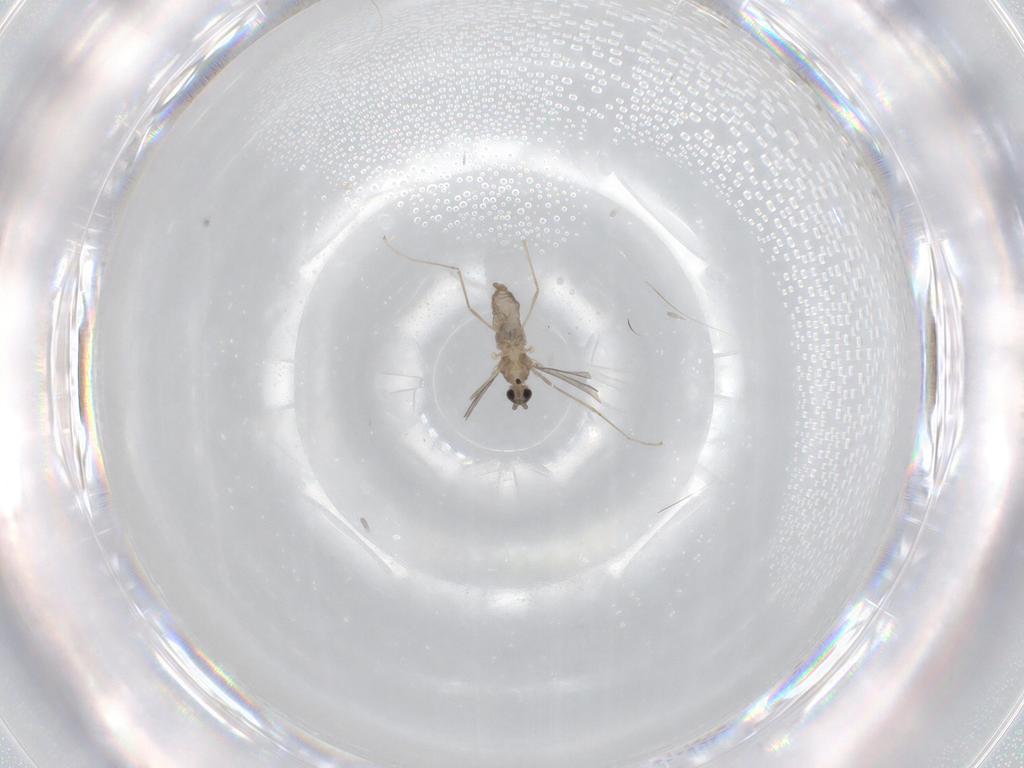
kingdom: Animalia
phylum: Arthropoda
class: Insecta
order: Diptera
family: Cecidomyiidae
